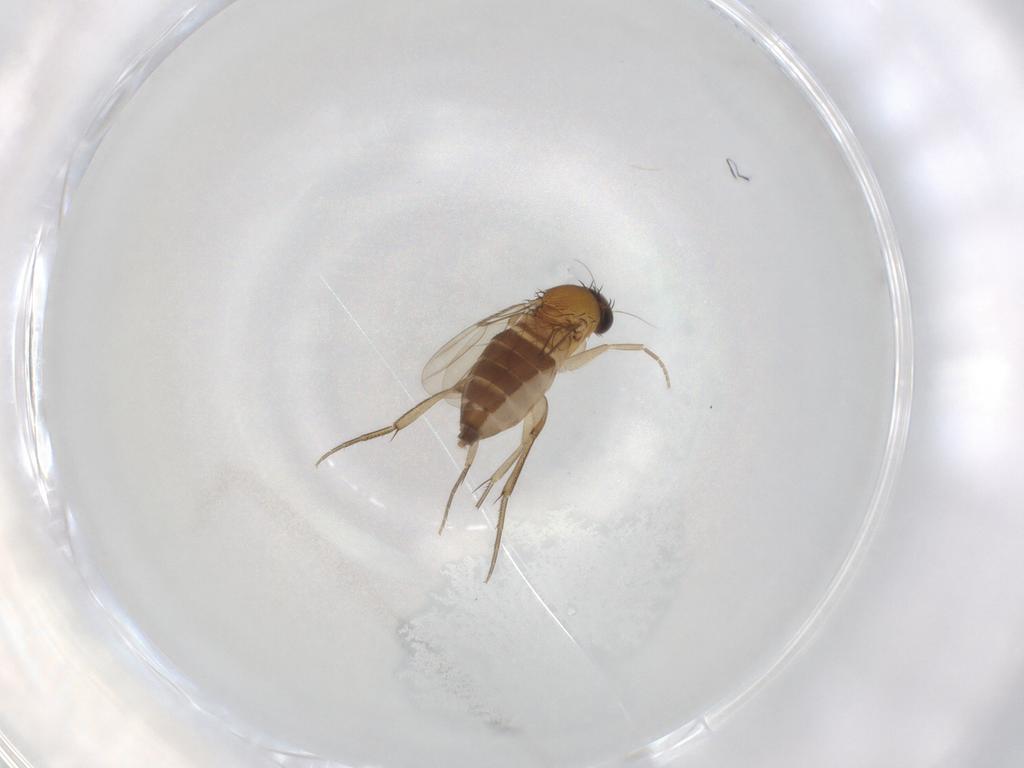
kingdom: Animalia
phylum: Arthropoda
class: Insecta
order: Diptera
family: Phoridae
